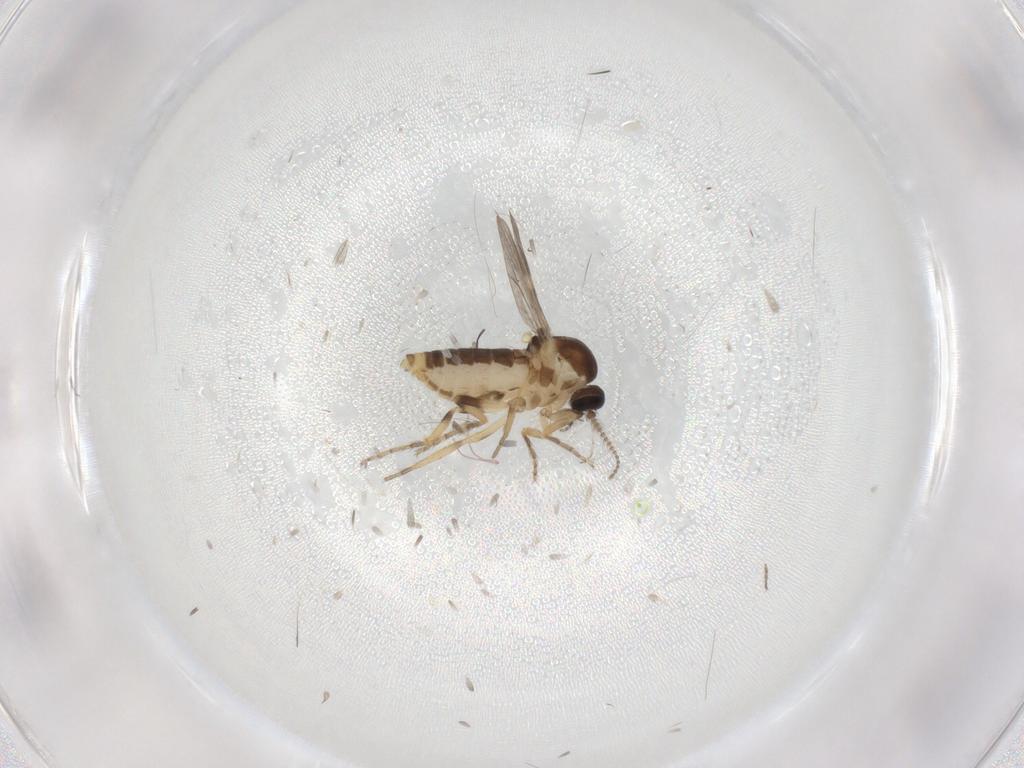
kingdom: Animalia
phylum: Arthropoda
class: Insecta
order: Diptera
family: Ceratopogonidae
